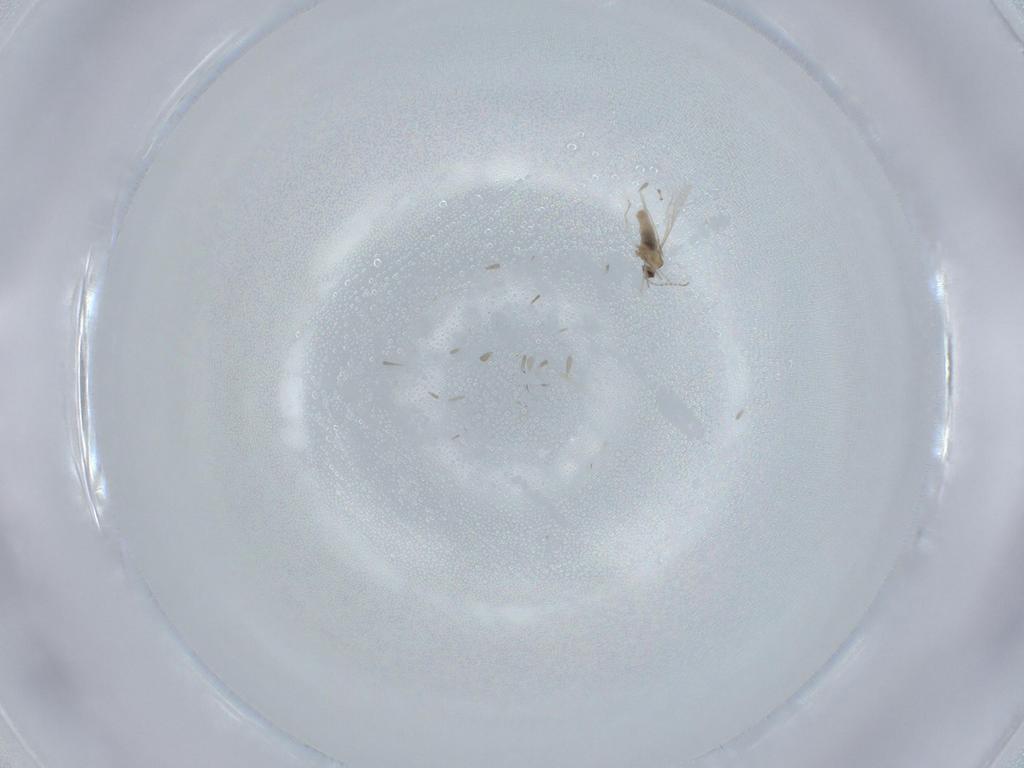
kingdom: Animalia
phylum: Arthropoda
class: Insecta
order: Diptera
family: Cecidomyiidae
